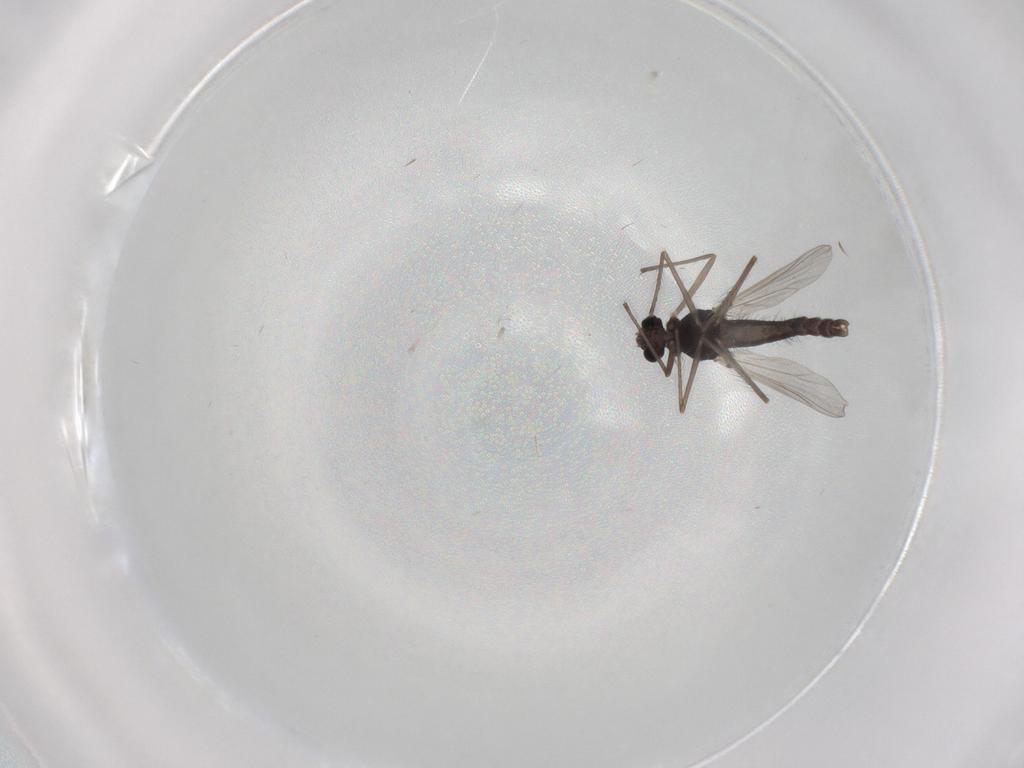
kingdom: Animalia
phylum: Arthropoda
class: Insecta
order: Diptera
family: Chironomidae
